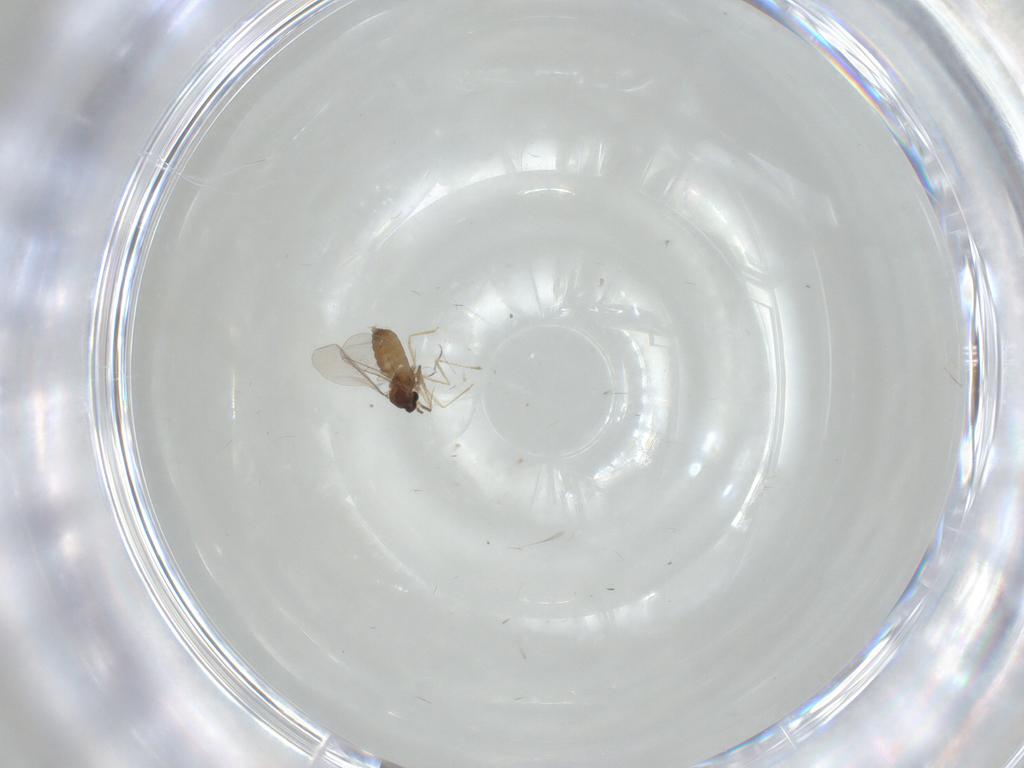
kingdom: Animalia
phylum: Arthropoda
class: Insecta
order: Diptera
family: Cecidomyiidae
